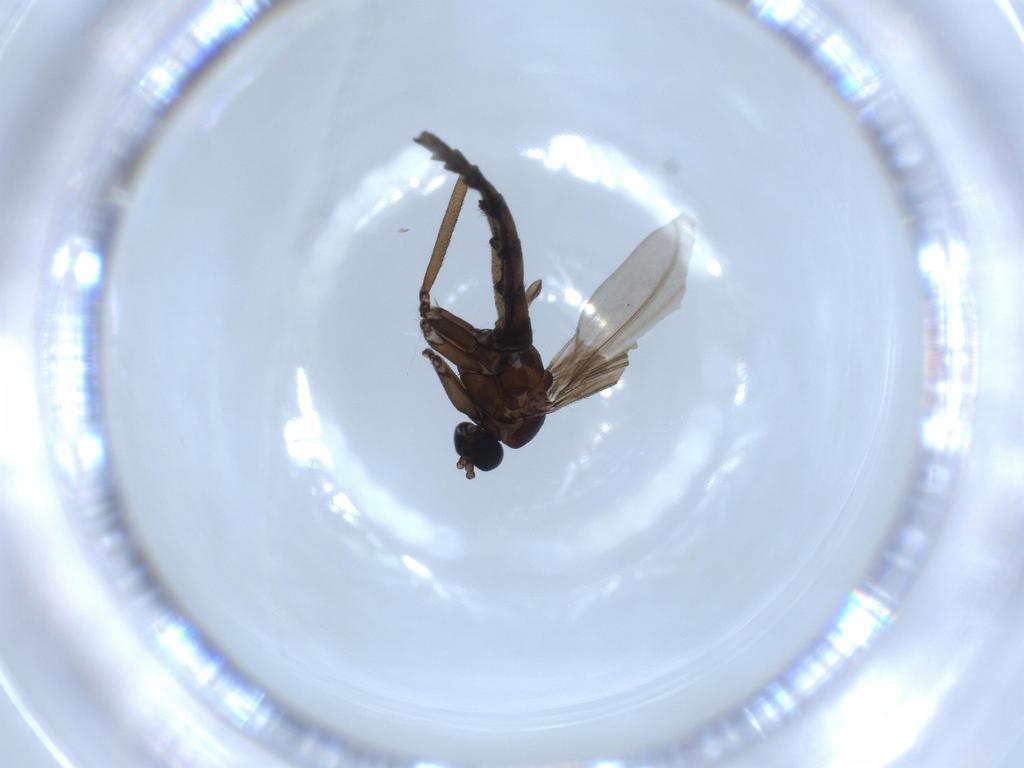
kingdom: Animalia
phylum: Arthropoda
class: Insecta
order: Diptera
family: Sciaridae
